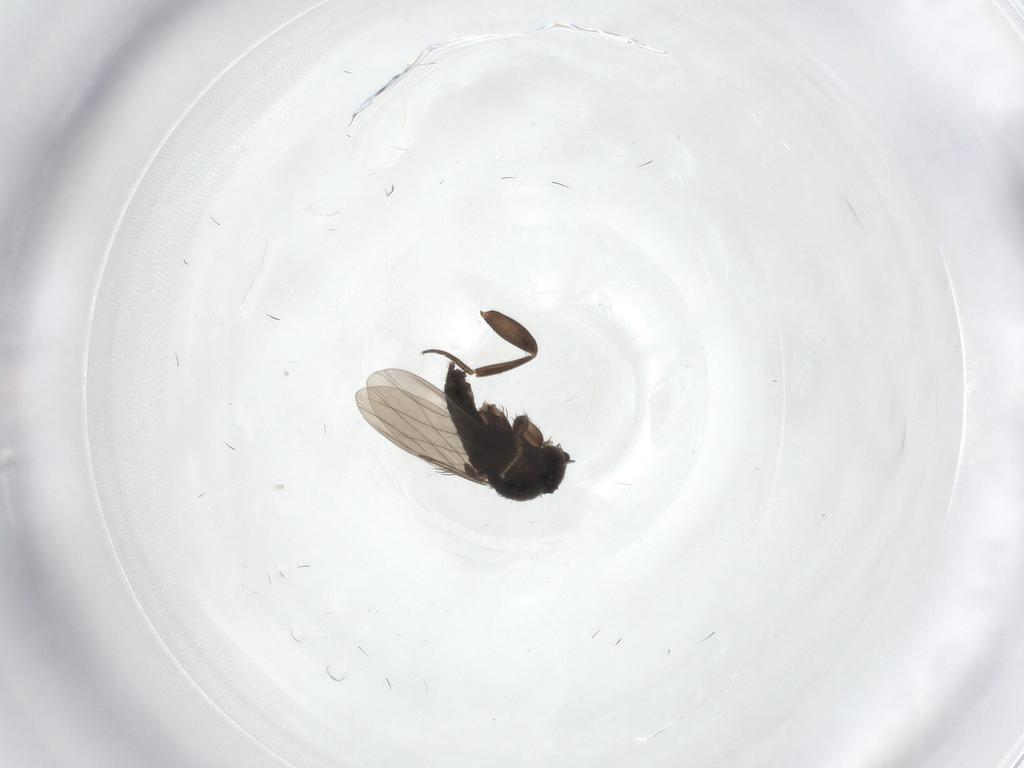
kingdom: Animalia
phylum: Arthropoda
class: Insecta
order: Diptera
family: Phoridae
